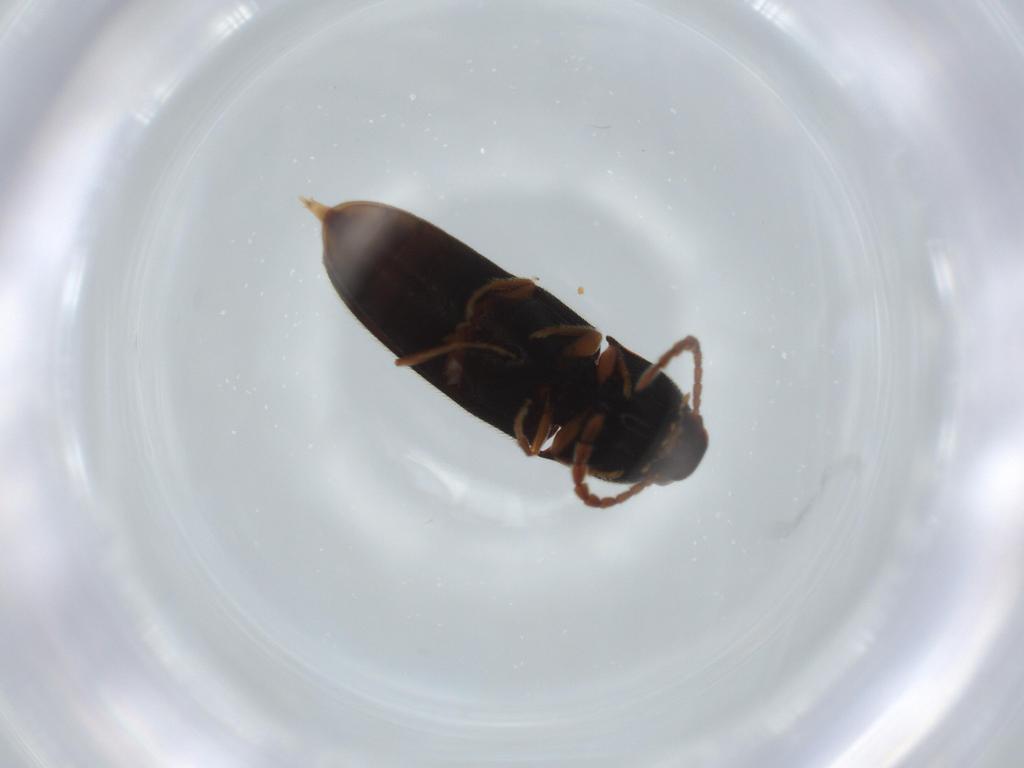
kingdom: Animalia
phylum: Arthropoda
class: Insecta
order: Coleoptera
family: Elateridae
